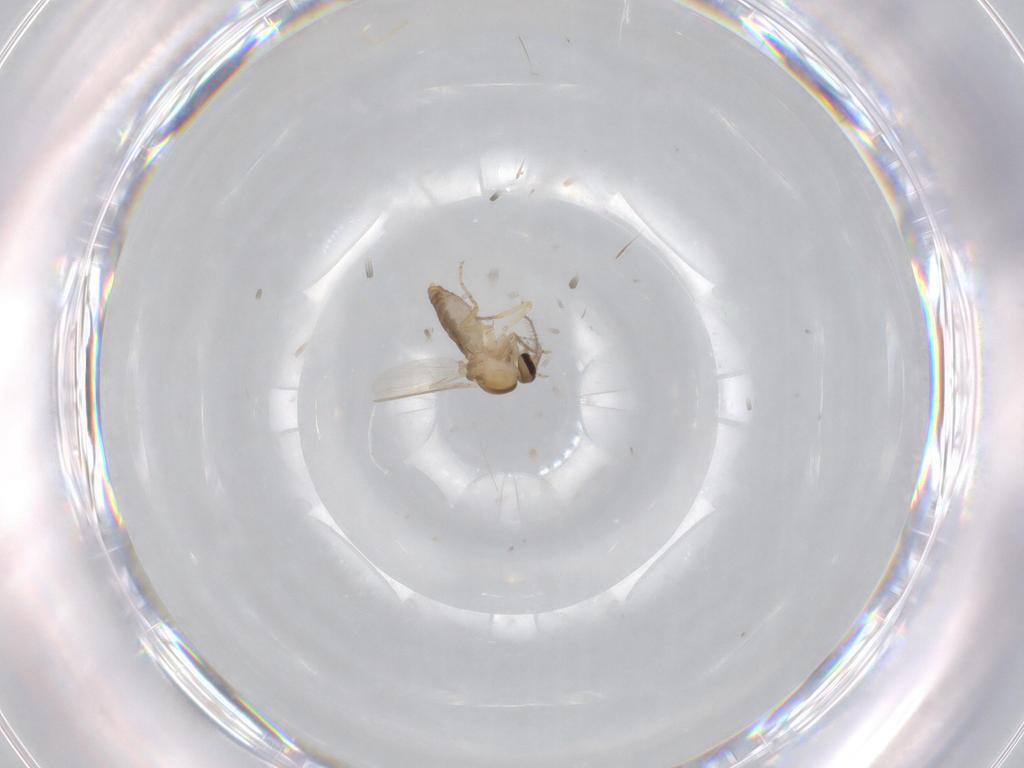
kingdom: Animalia
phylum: Arthropoda
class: Insecta
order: Diptera
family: Ceratopogonidae
